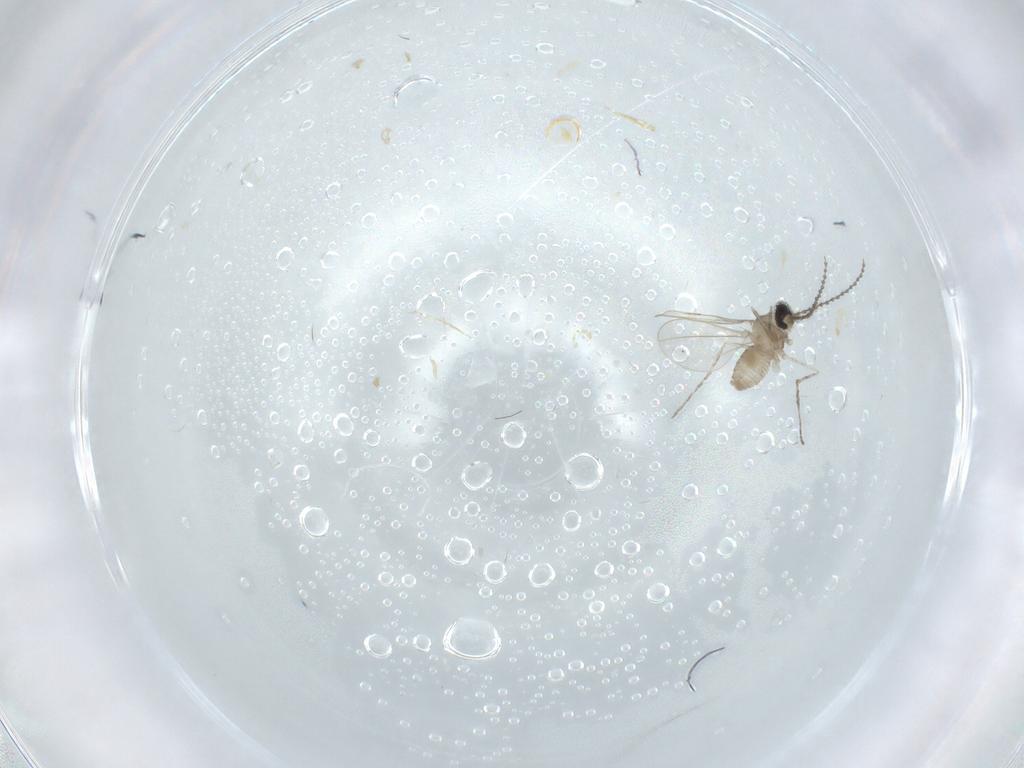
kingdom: Animalia
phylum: Arthropoda
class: Insecta
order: Diptera
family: Cecidomyiidae
